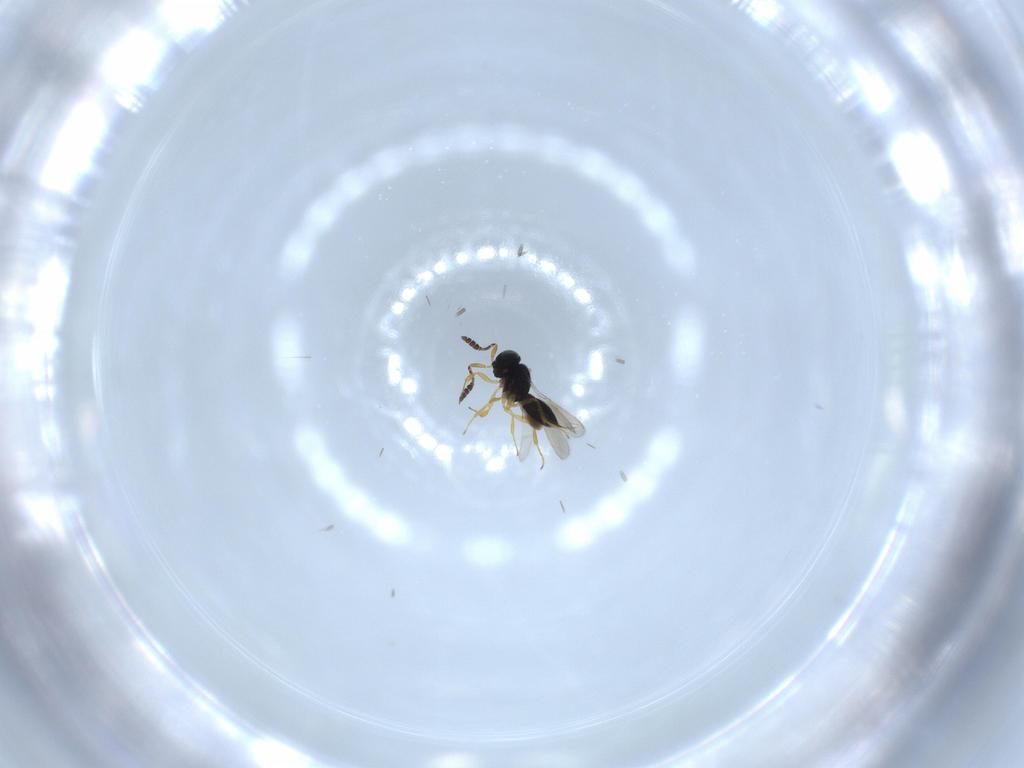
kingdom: Animalia
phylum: Arthropoda
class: Insecta
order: Hymenoptera
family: Scelionidae
